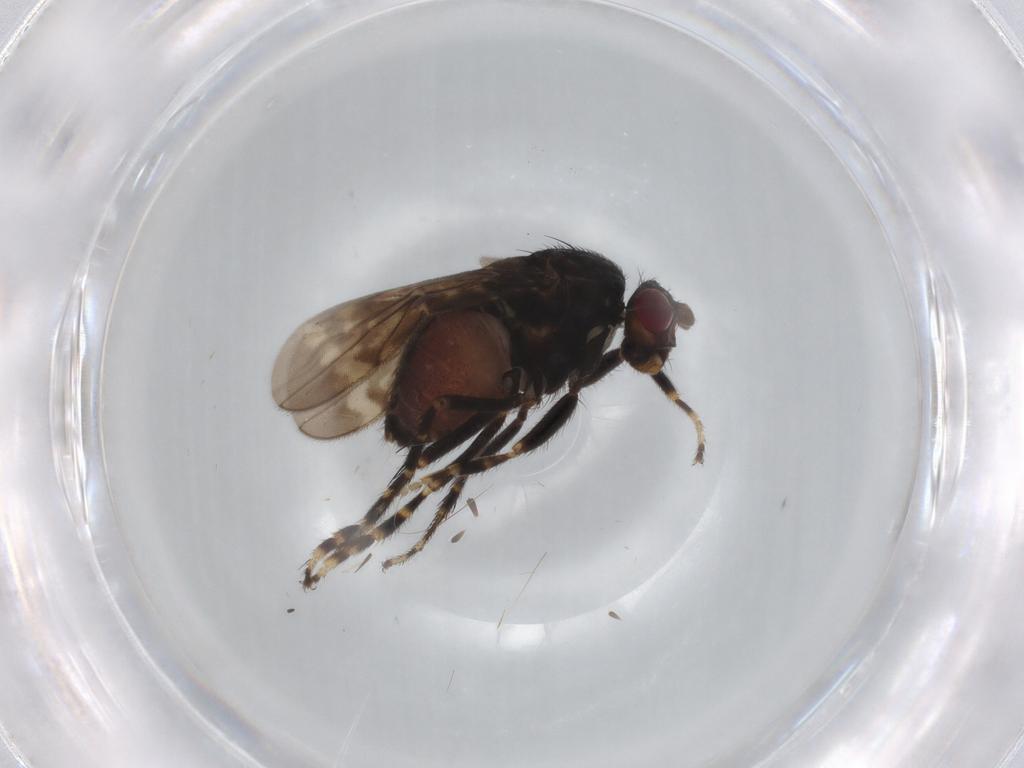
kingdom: Animalia
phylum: Arthropoda
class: Insecta
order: Diptera
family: Sphaeroceridae
